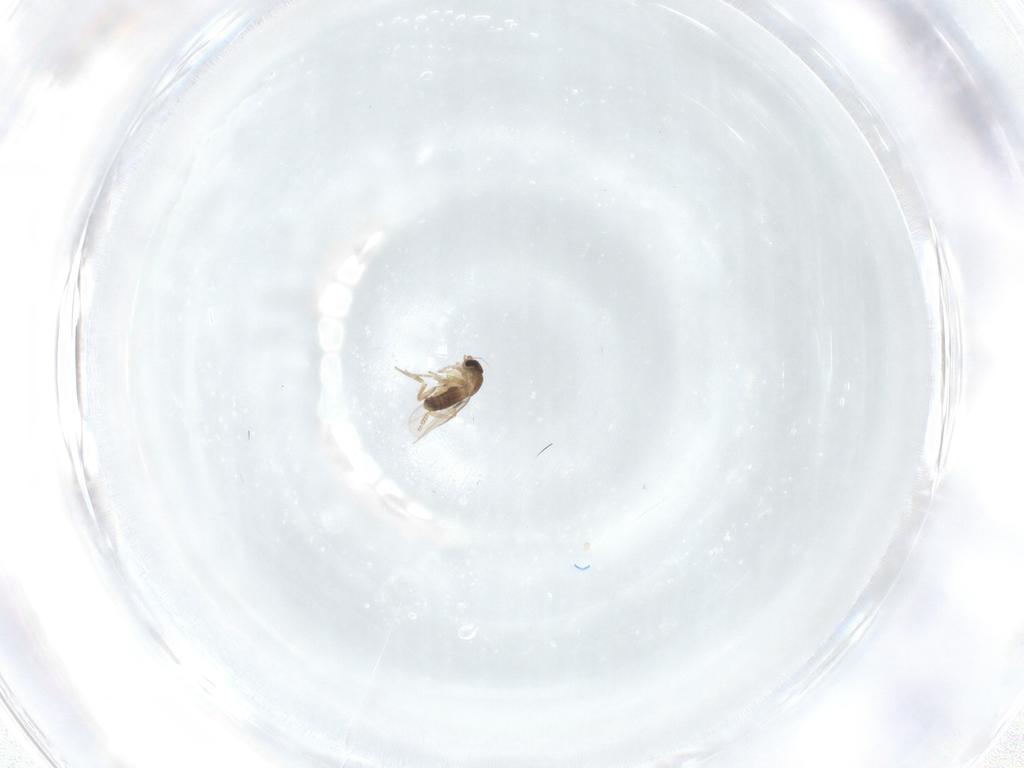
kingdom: Animalia
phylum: Arthropoda
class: Insecta
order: Diptera
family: Phoridae
